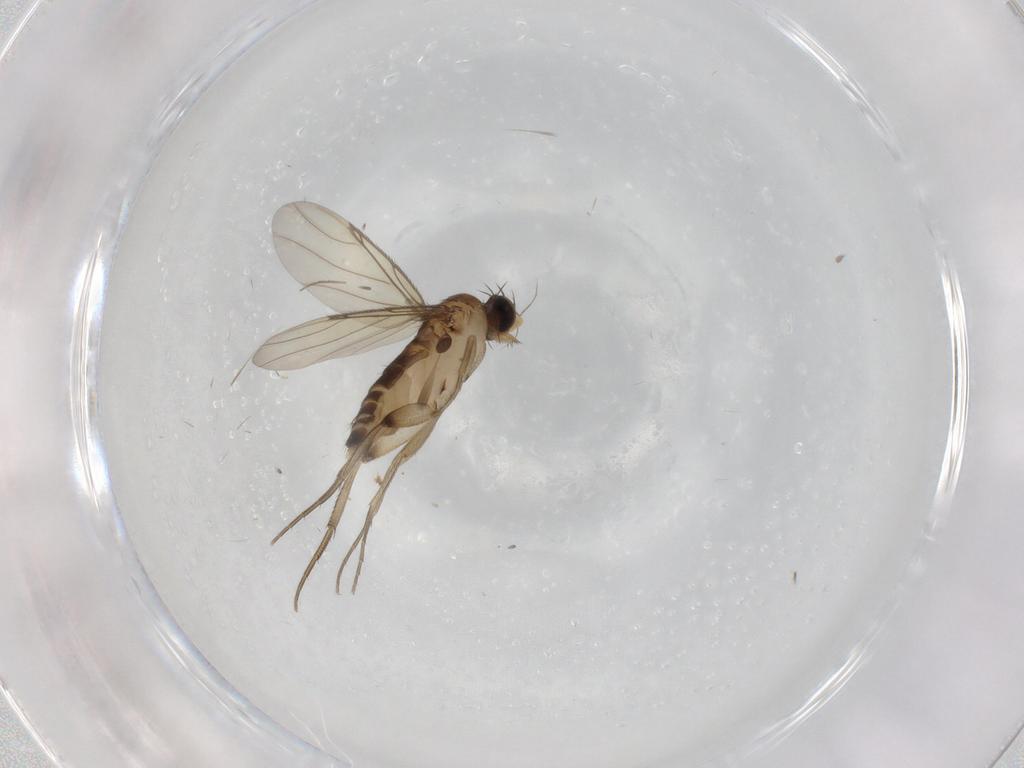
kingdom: Animalia
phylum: Arthropoda
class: Insecta
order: Diptera
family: Phoridae
